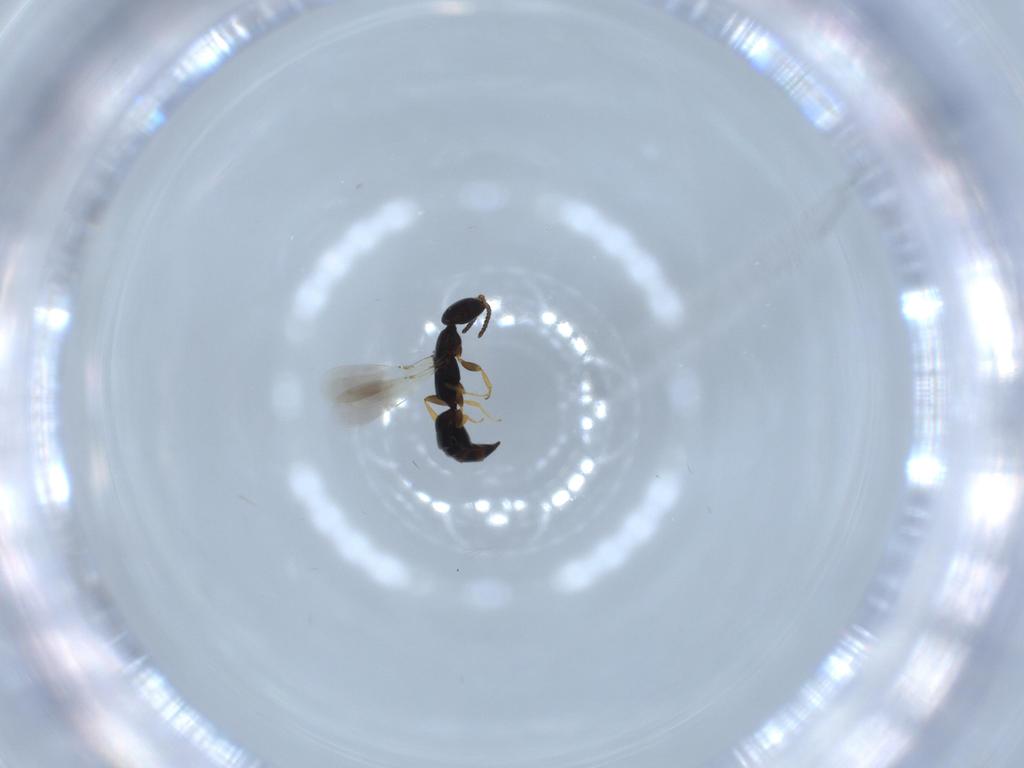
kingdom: Animalia
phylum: Arthropoda
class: Insecta
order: Hymenoptera
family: Bethylidae
